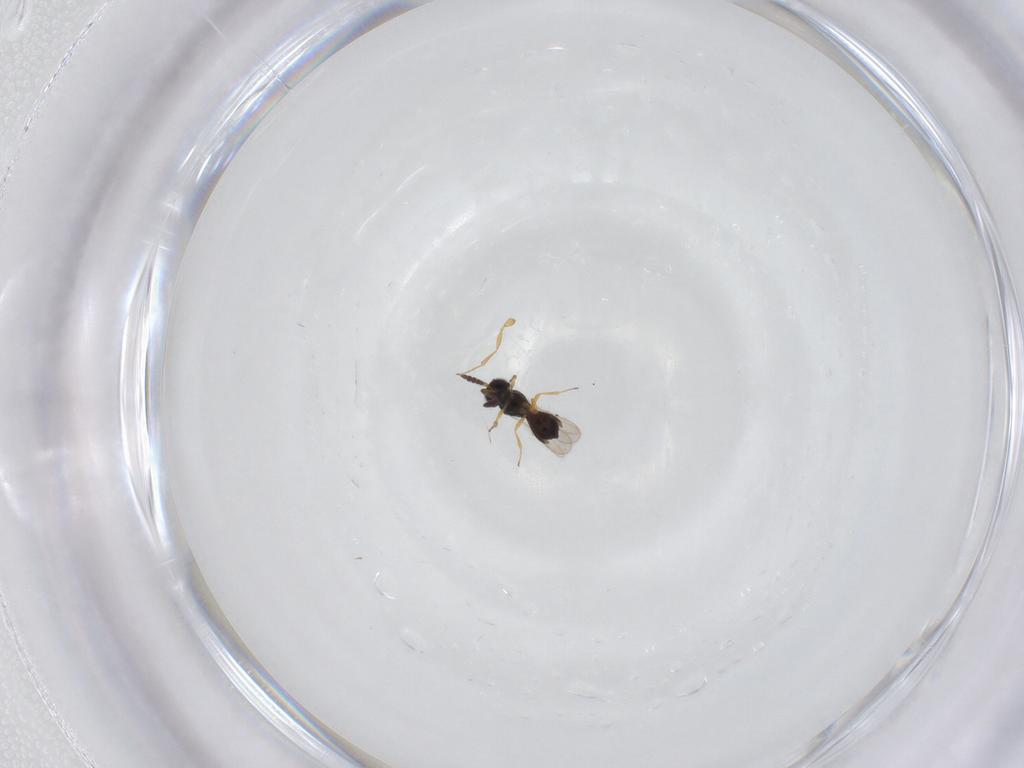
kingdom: Animalia
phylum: Arthropoda
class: Insecta
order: Hymenoptera
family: Scelionidae
